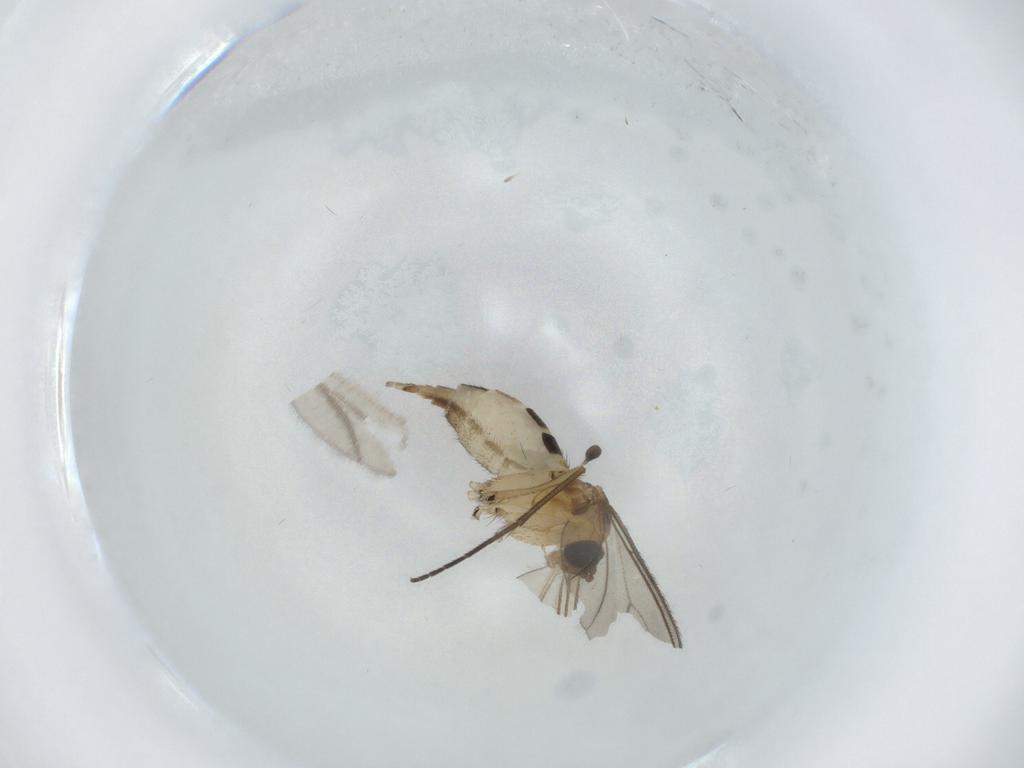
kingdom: Animalia
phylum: Arthropoda
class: Insecta
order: Diptera
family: Sciaridae
